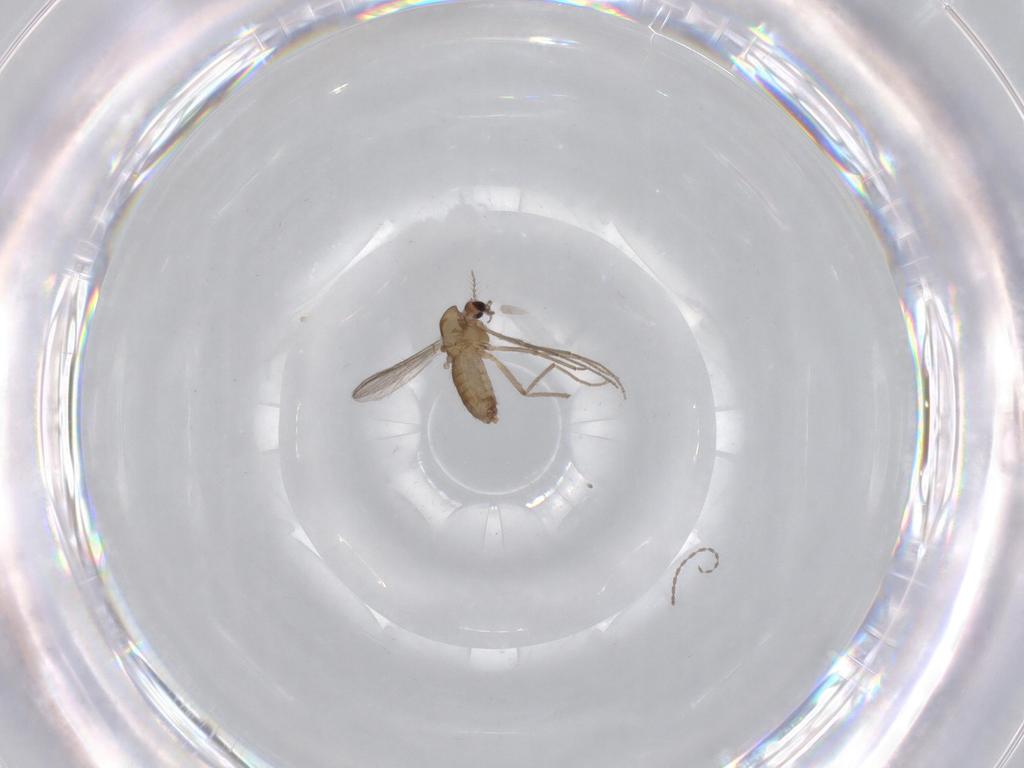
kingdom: Animalia
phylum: Arthropoda
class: Insecta
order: Diptera
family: Chironomidae
